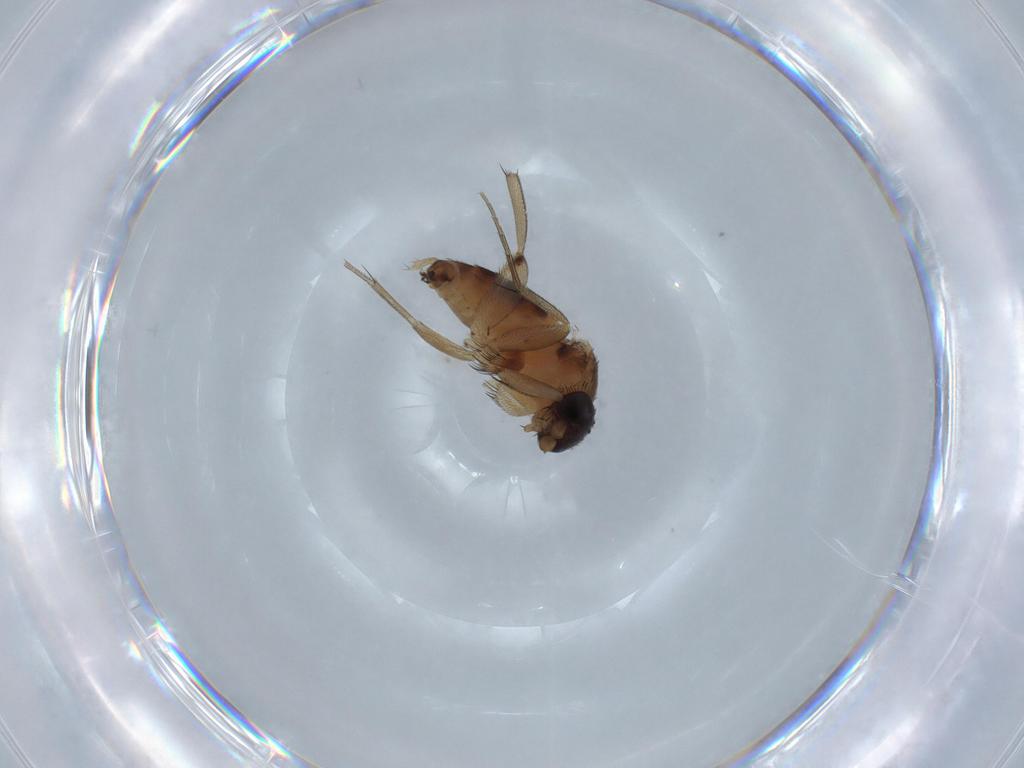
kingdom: Animalia
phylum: Arthropoda
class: Insecta
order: Diptera
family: Phoridae
